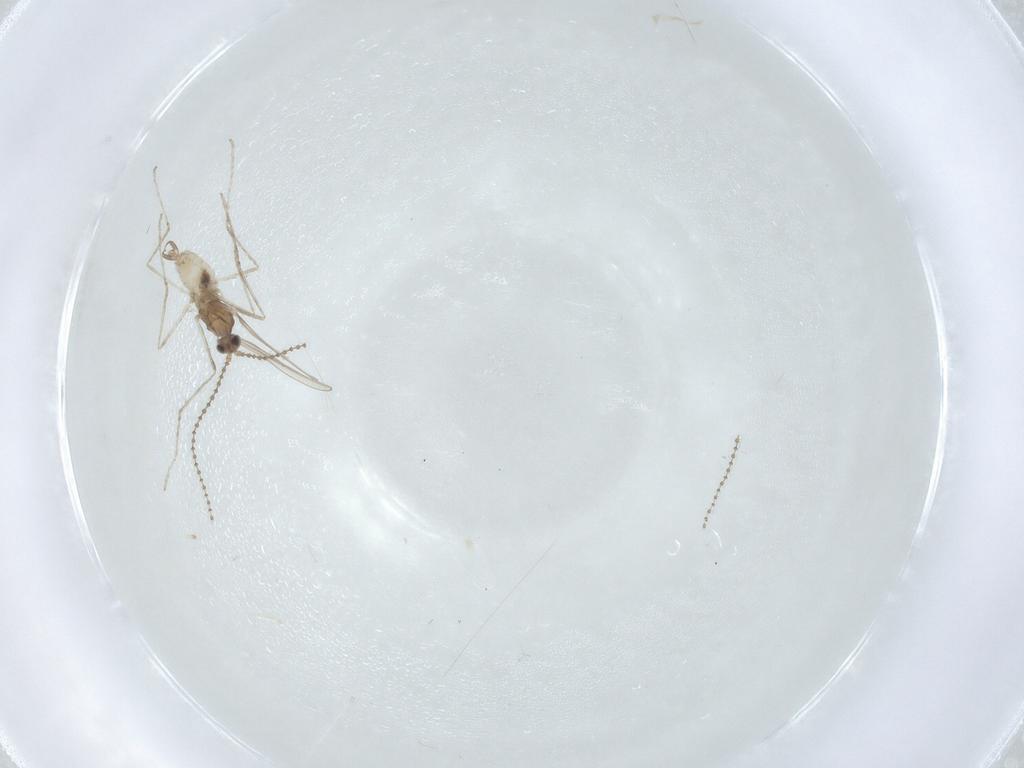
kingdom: Animalia
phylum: Arthropoda
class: Insecta
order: Diptera
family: Cecidomyiidae
